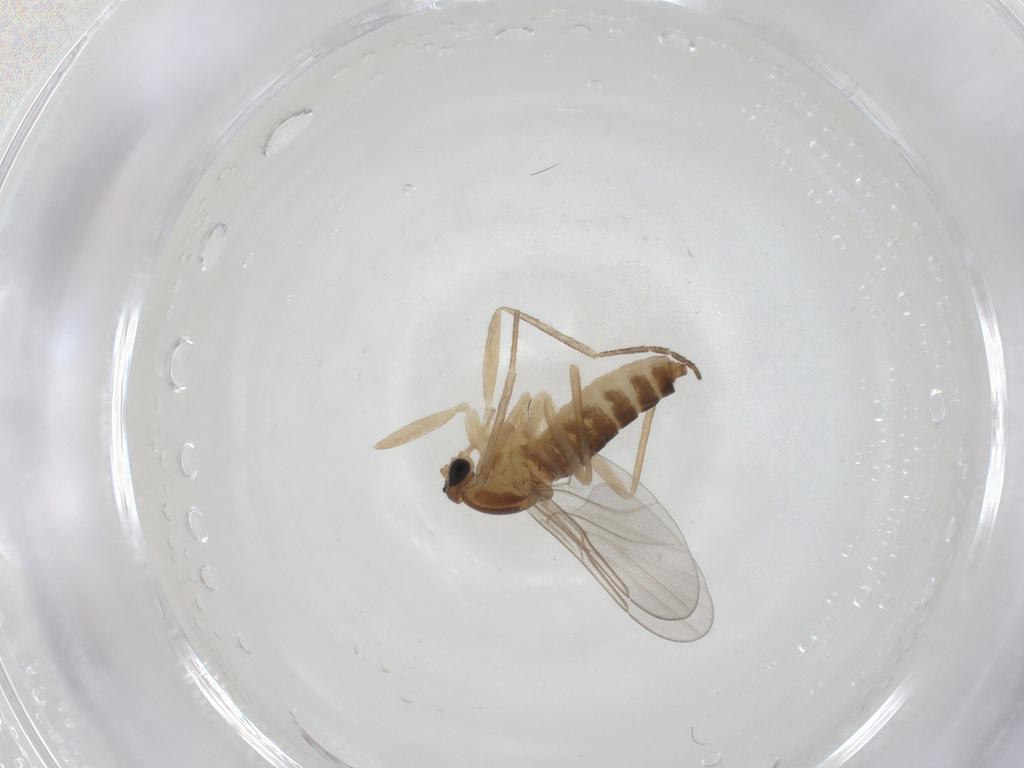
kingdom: Animalia
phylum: Arthropoda
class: Insecta
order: Diptera
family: Cecidomyiidae
